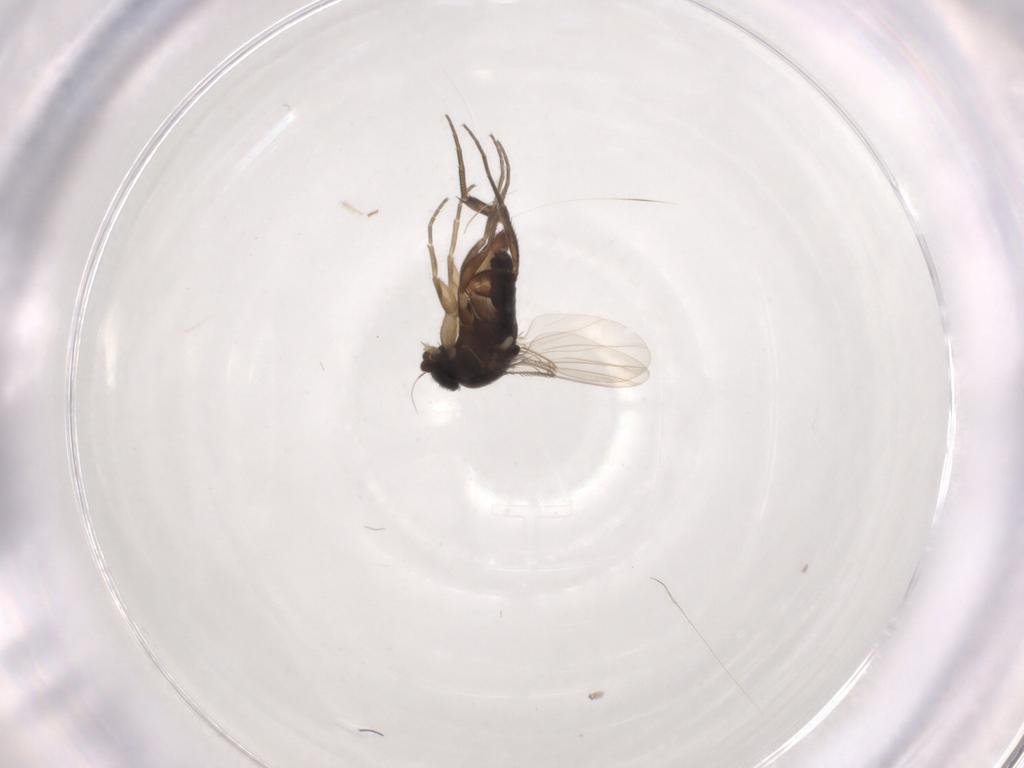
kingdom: Animalia
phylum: Arthropoda
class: Insecta
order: Diptera
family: Phoridae
